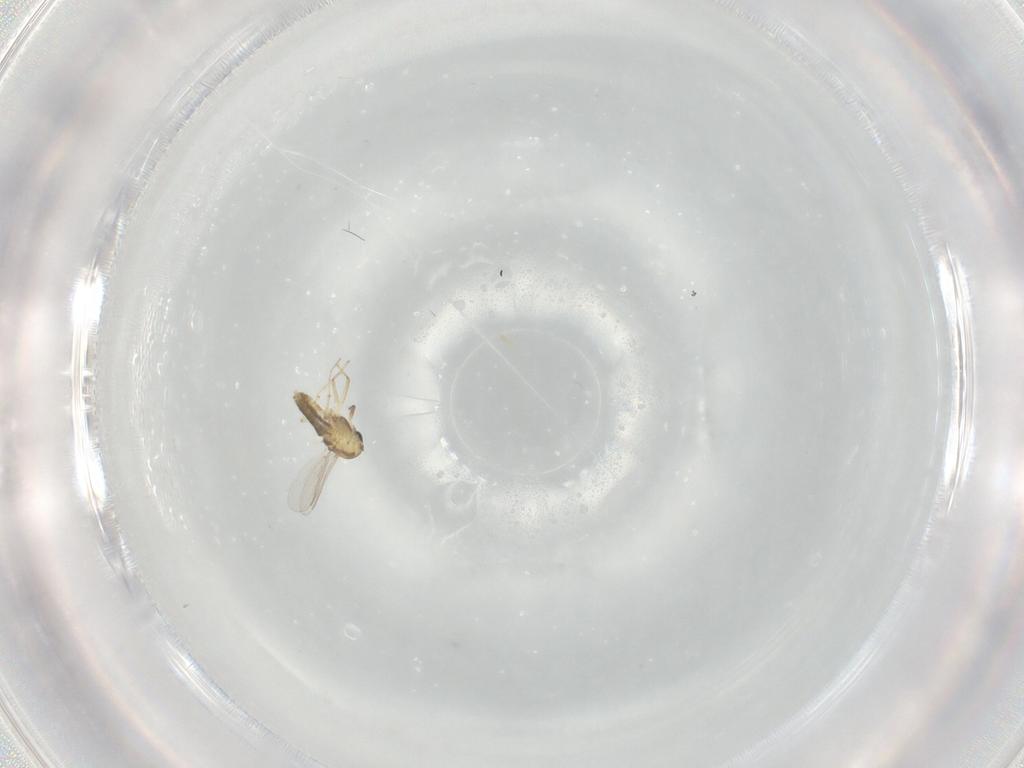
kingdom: Animalia
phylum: Arthropoda
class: Insecta
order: Diptera
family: Chironomidae
